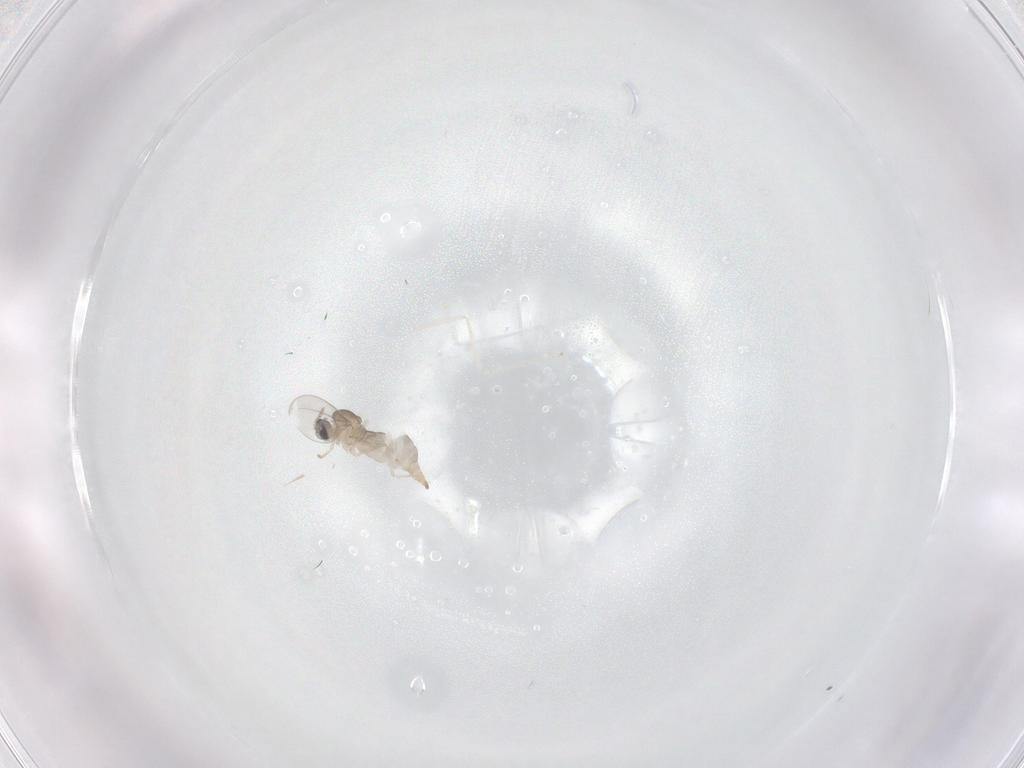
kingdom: Animalia
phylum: Arthropoda
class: Insecta
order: Diptera
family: Cecidomyiidae
